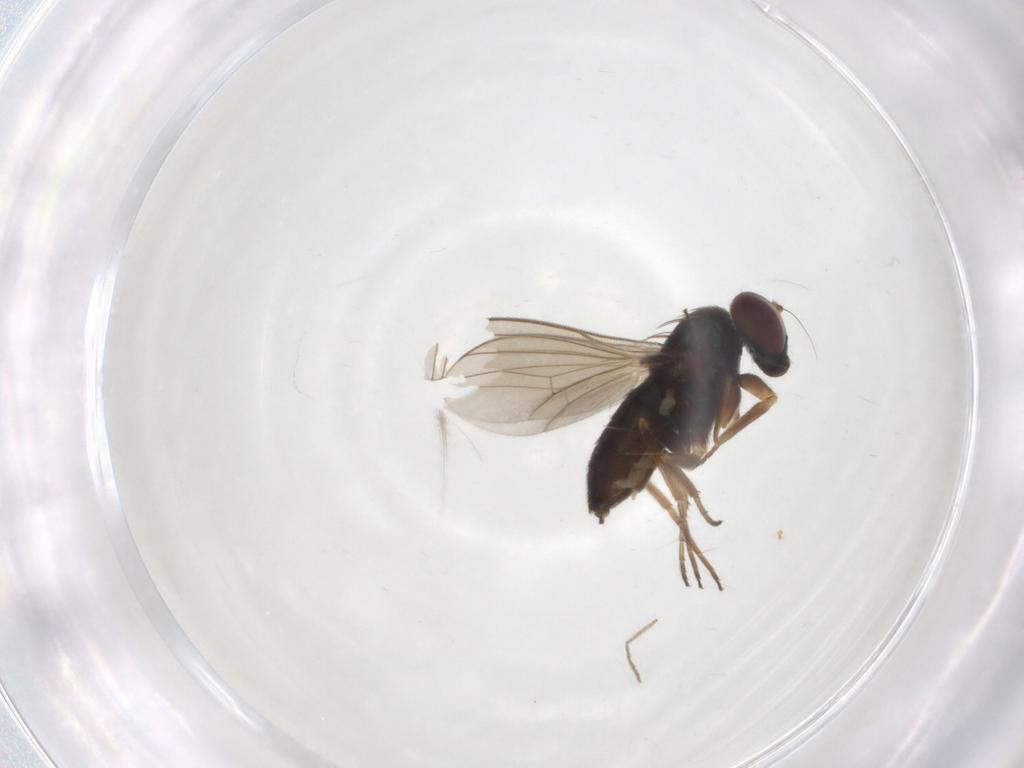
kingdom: Animalia
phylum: Arthropoda
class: Insecta
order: Diptera
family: Dolichopodidae
